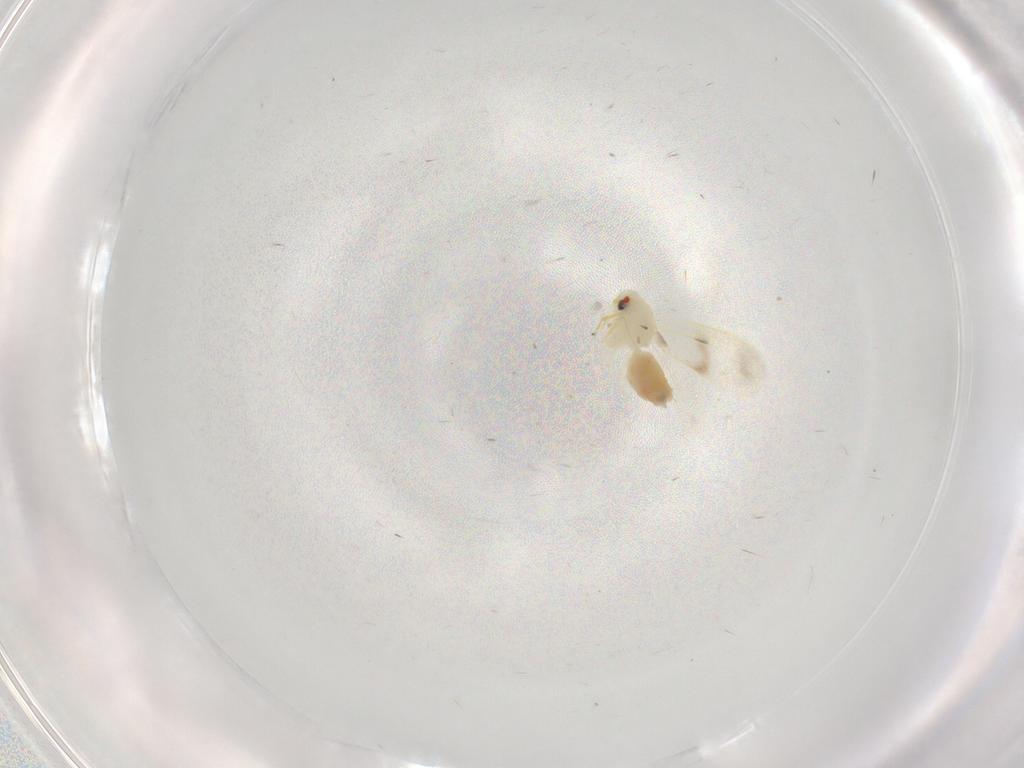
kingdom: Animalia
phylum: Arthropoda
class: Insecta
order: Hemiptera
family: Aleyrodidae
